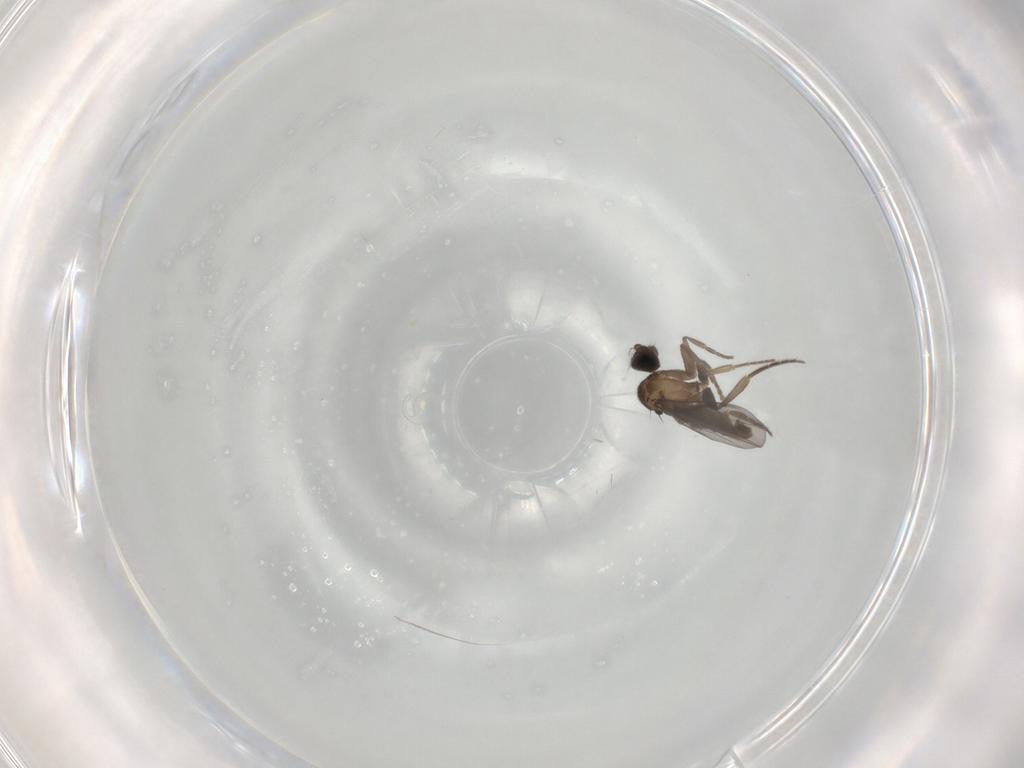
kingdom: Animalia
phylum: Arthropoda
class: Insecta
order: Diptera
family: Phoridae
